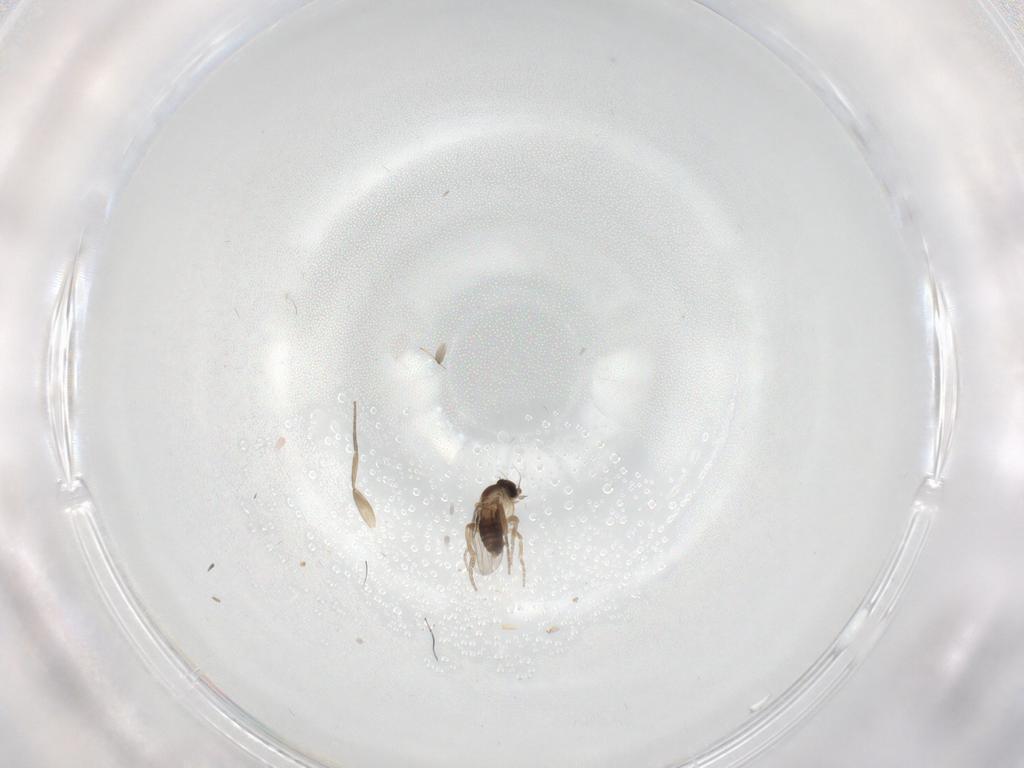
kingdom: Animalia
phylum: Arthropoda
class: Insecta
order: Diptera
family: Phoridae
